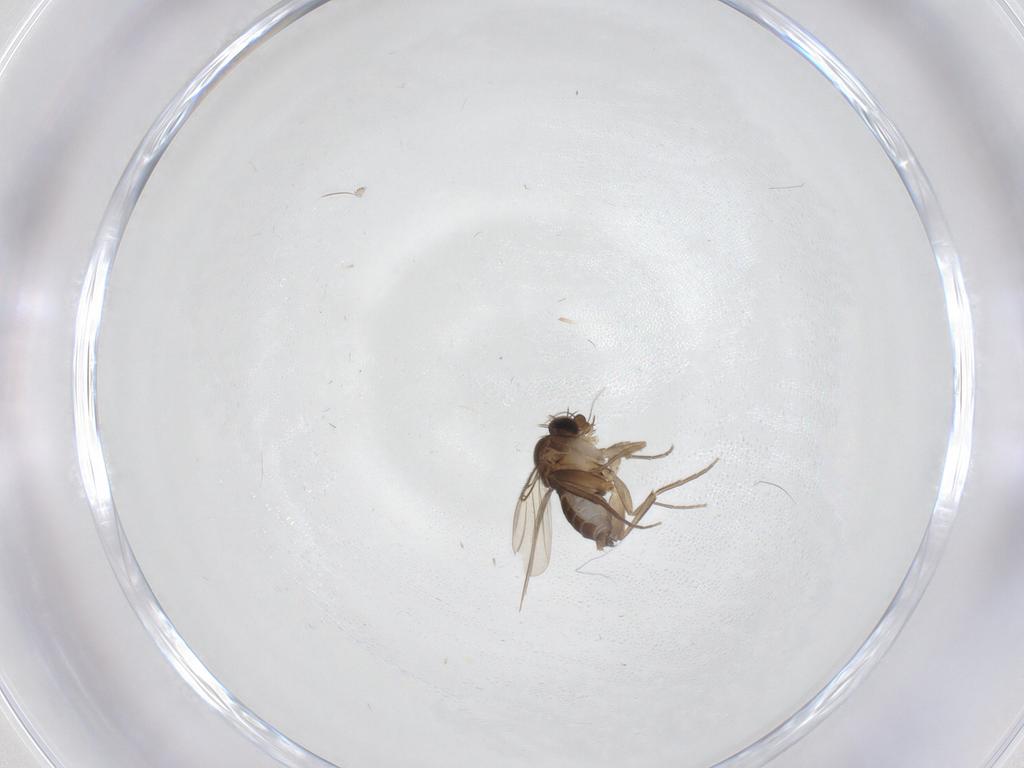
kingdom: Animalia
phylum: Arthropoda
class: Insecta
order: Diptera
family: Phoridae
